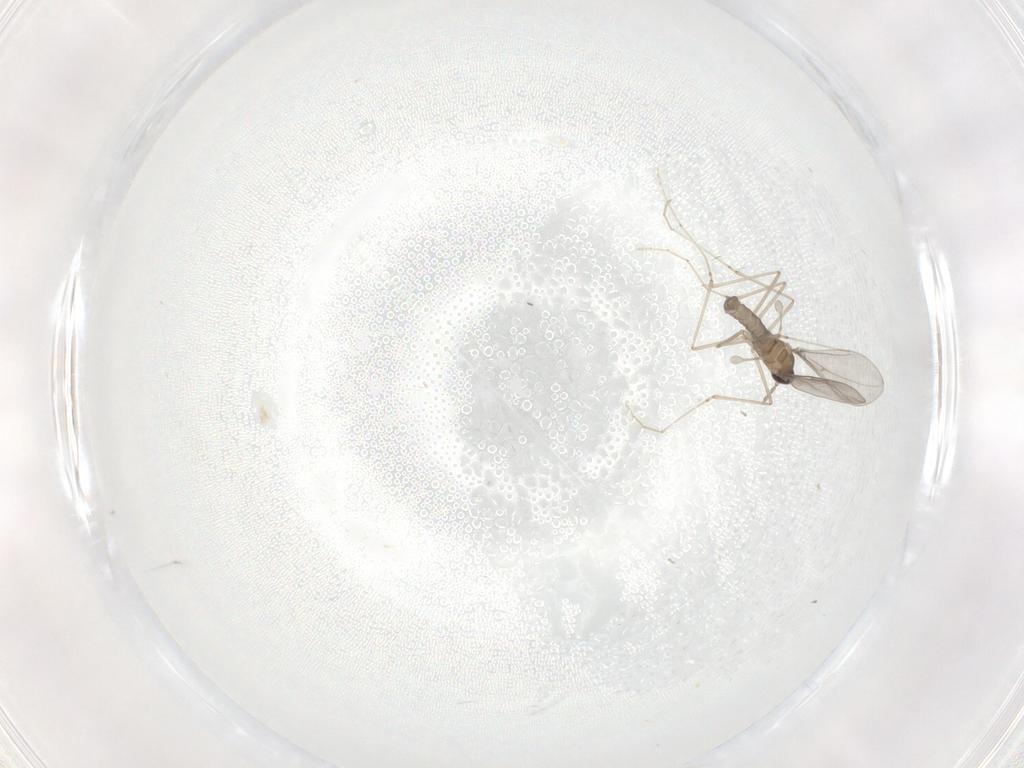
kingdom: Animalia
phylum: Arthropoda
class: Insecta
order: Diptera
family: Cecidomyiidae
